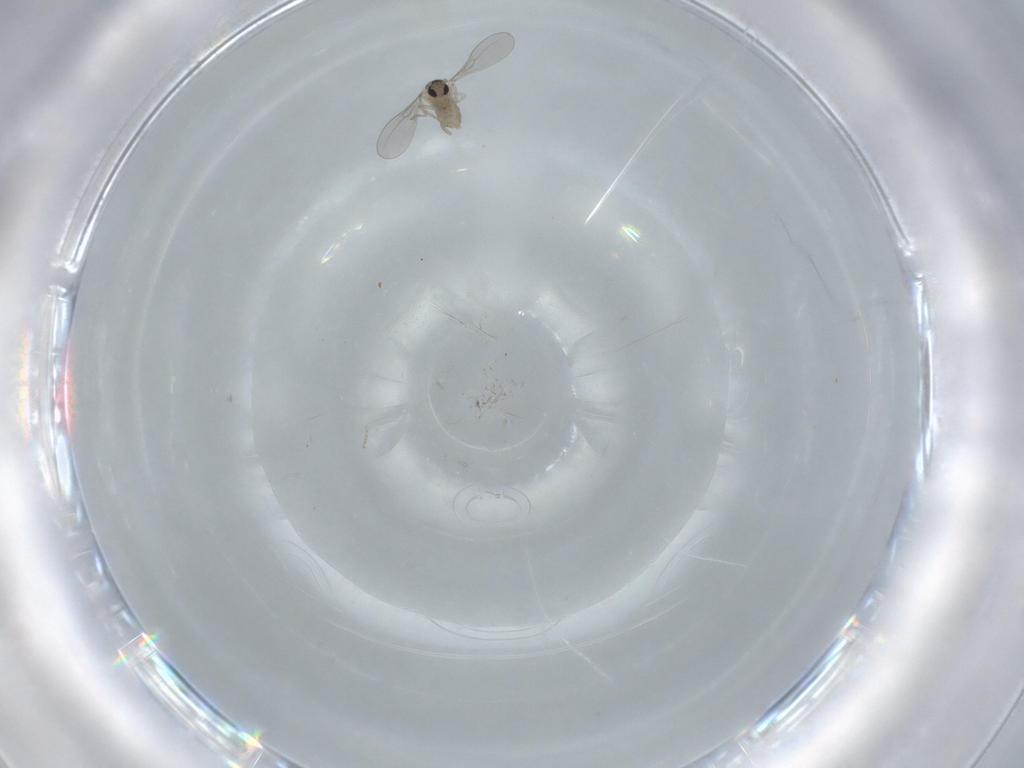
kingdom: Animalia
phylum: Arthropoda
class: Insecta
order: Diptera
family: Cecidomyiidae
